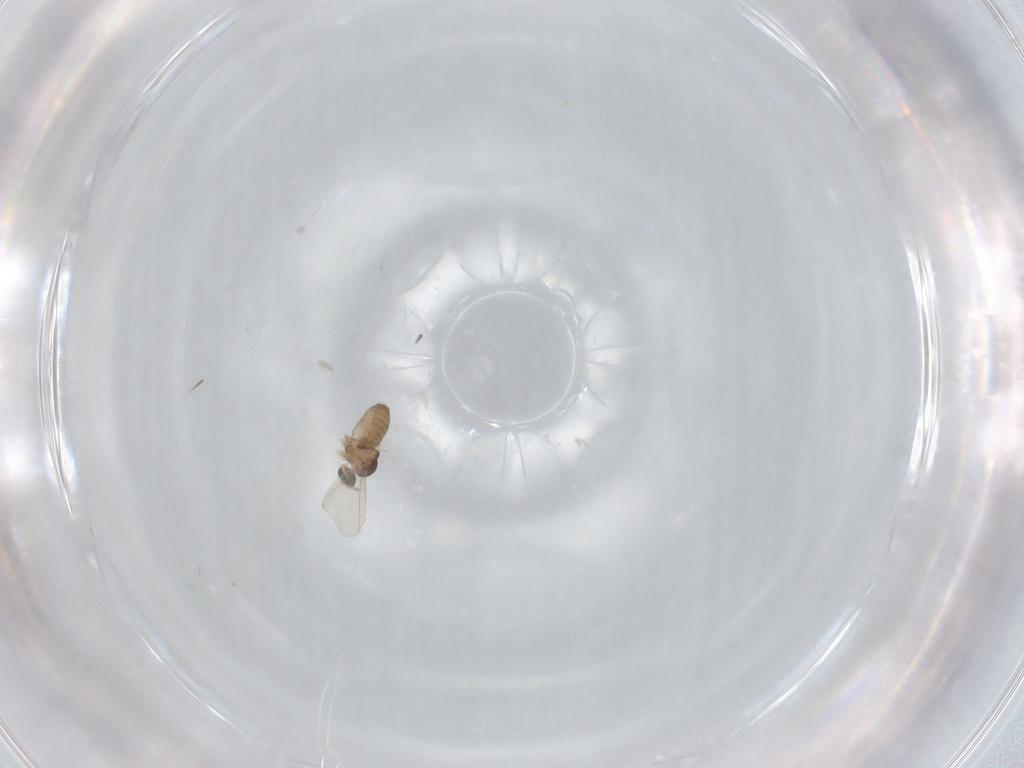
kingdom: Animalia
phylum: Arthropoda
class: Insecta
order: Diptera
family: Cecidomyiidae
